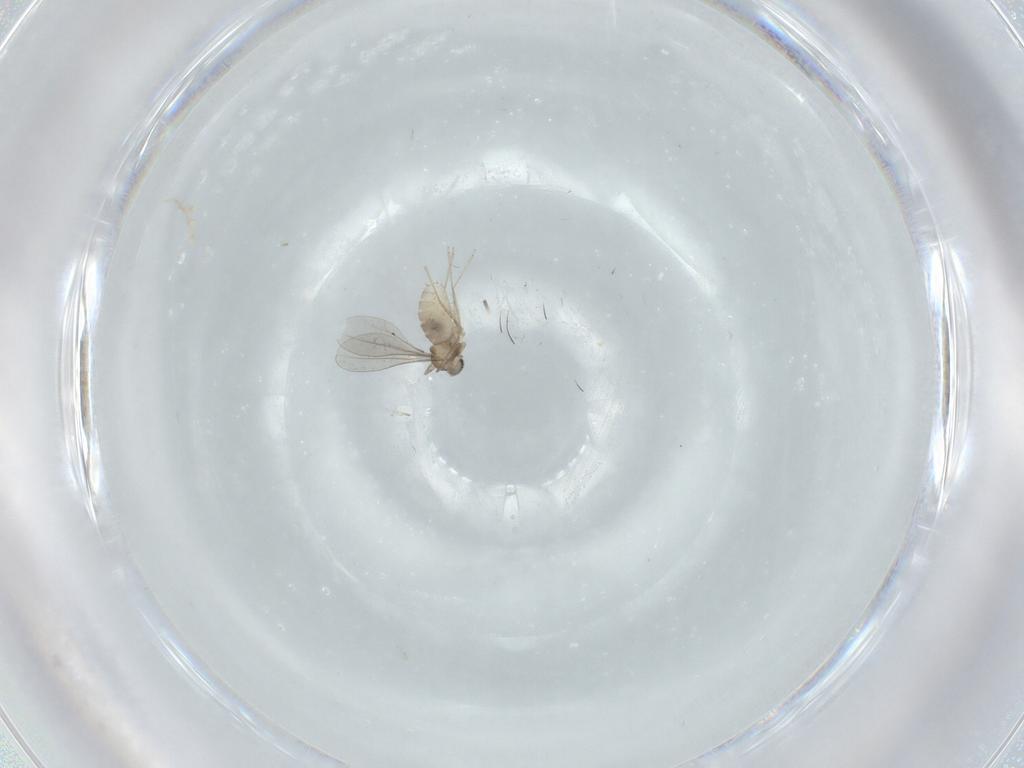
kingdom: Animalia
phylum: Arthropoda
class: Insecta
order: Diptera
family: Cecidomyiidae
